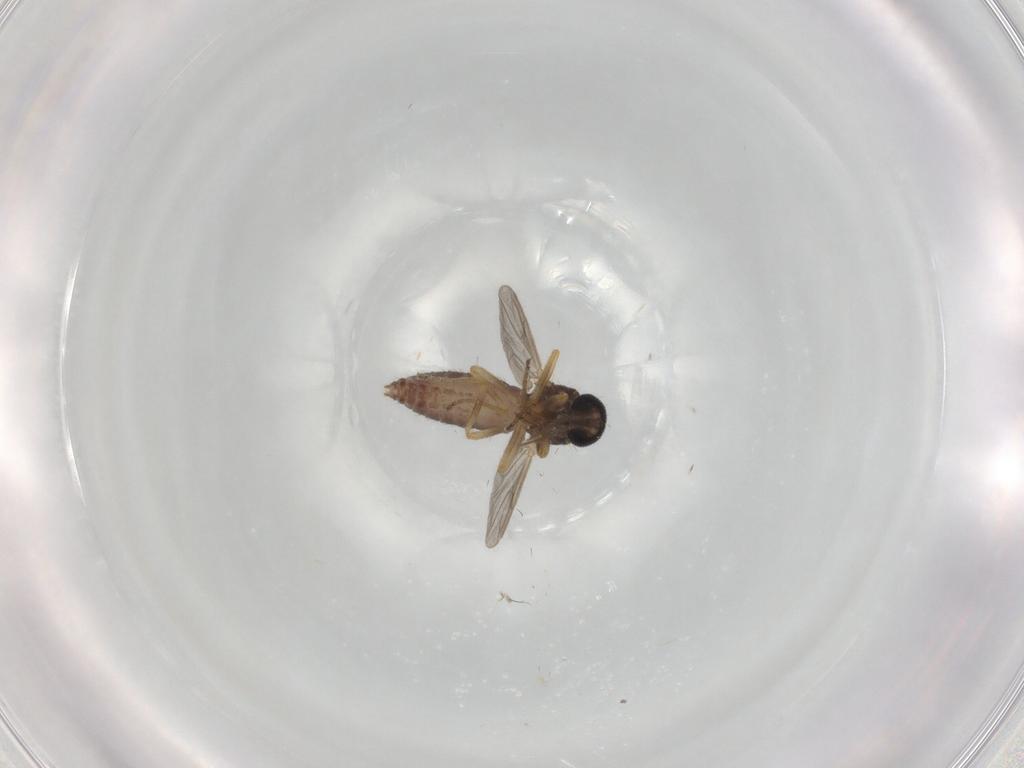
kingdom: Animalia
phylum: Arthropoda
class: Insecta
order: Diptera
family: Ceratopogonidae
